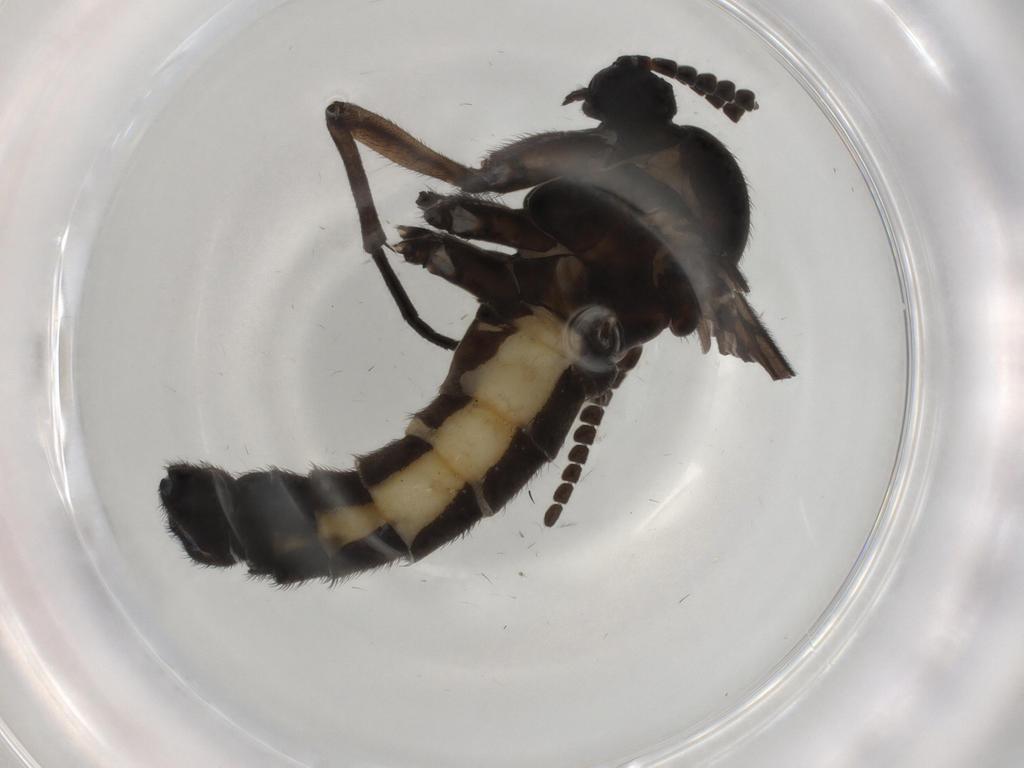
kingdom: Animalia
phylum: Arthropoda
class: Insecta
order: Diptera
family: Sciaridae
